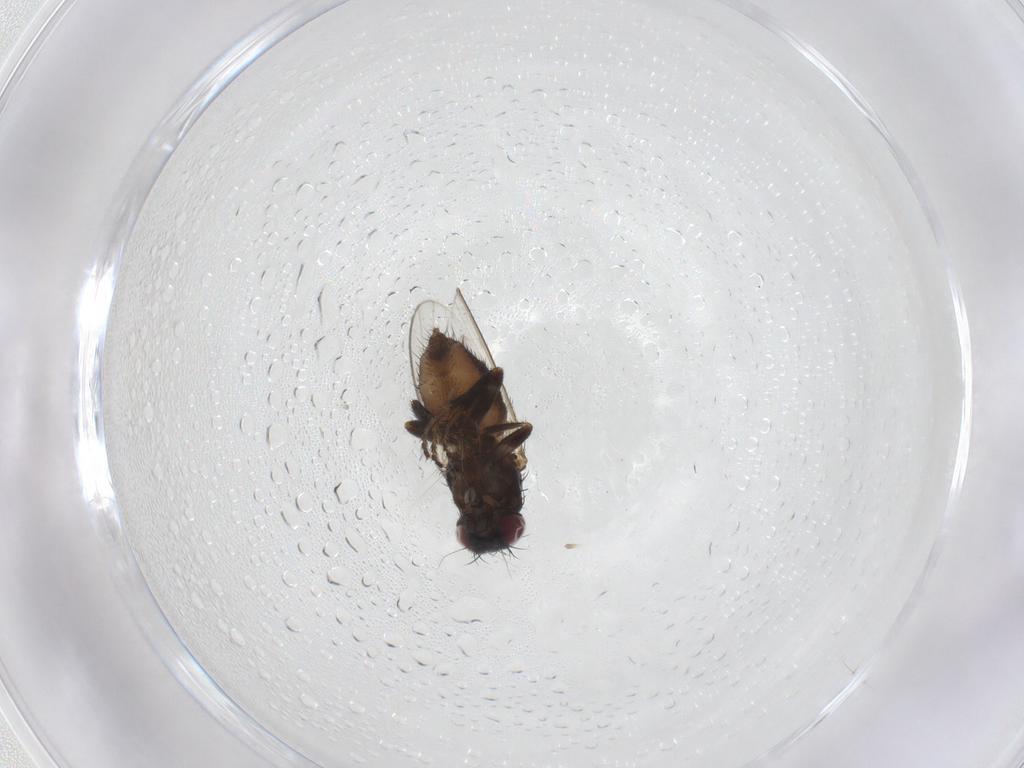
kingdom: Animalia
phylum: Arthropoda
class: Insecta
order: Diptera
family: Milichiidae
